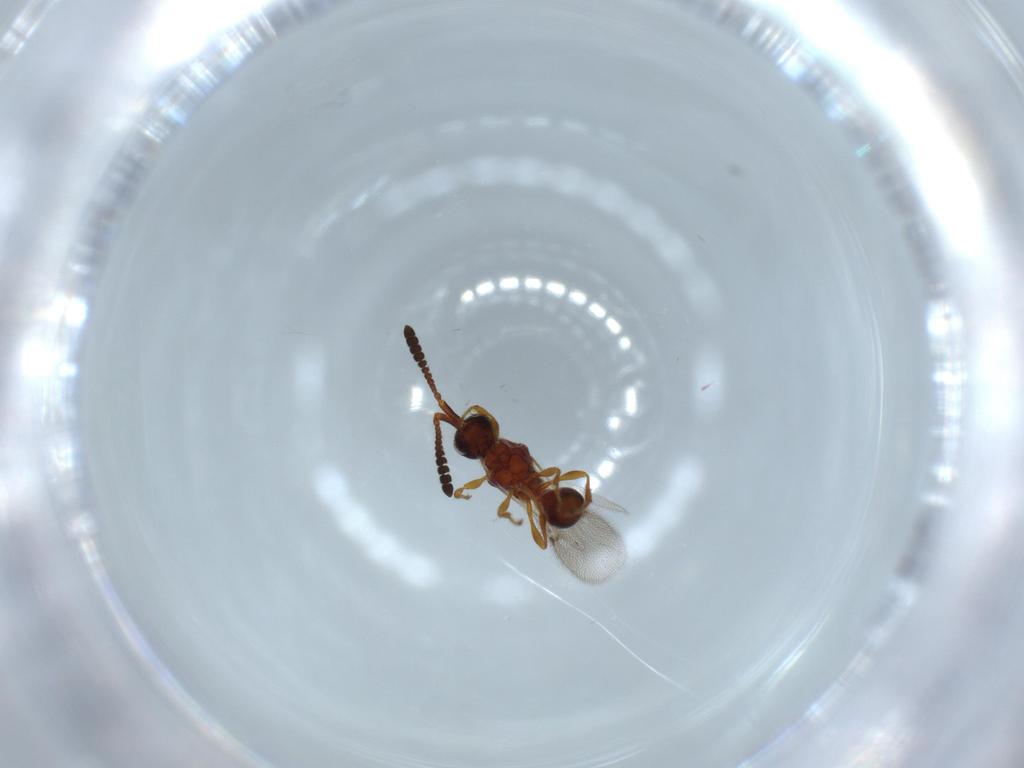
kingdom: Animalia
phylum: Arthropoda
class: Insecta
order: Hymenoptera
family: Diapriidae
